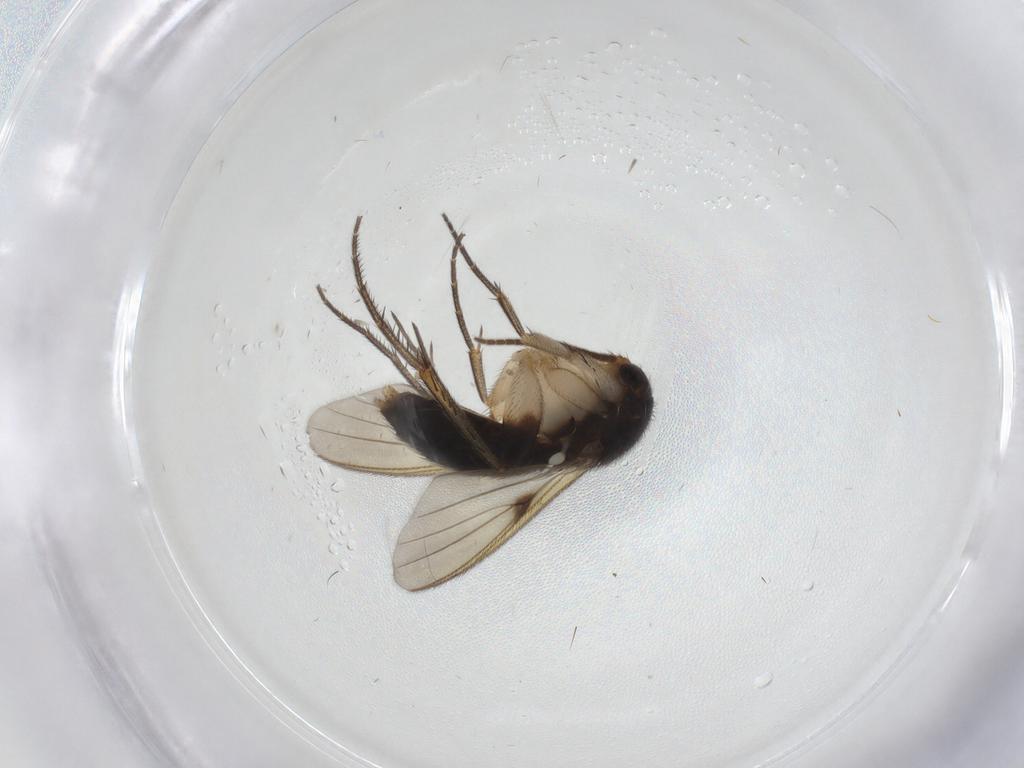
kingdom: Animalia
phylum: Arthropoda
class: Insecta
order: Diptera
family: Mycetophilidae
